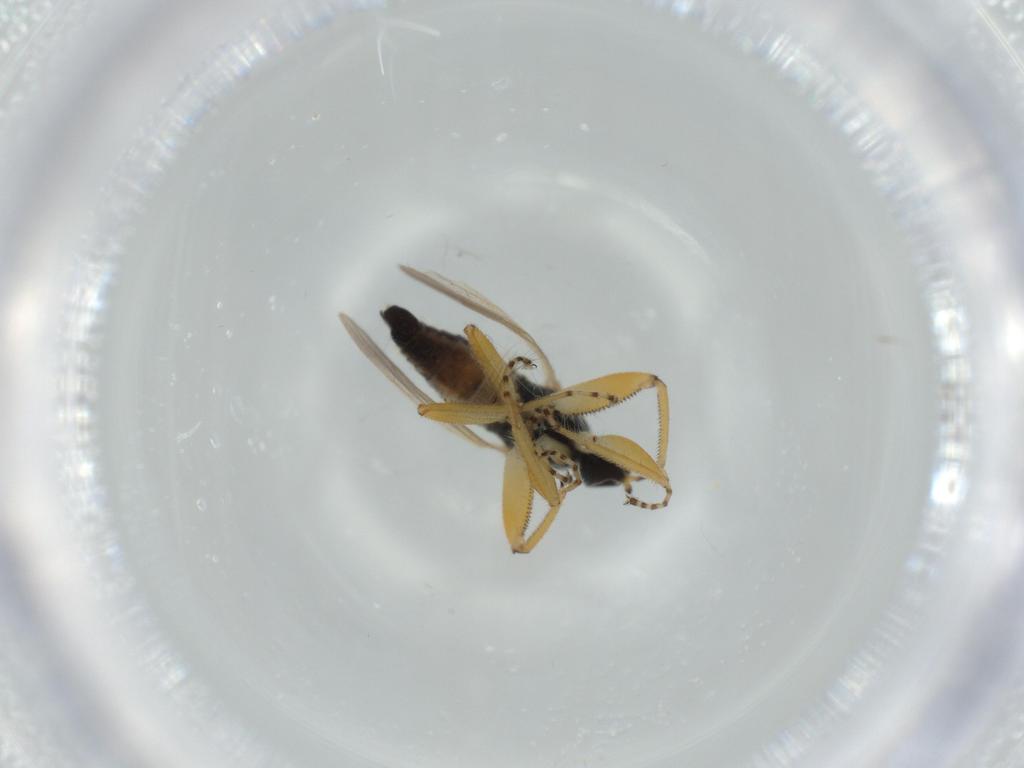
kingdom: Animalia
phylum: Arthropoda
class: Insecta
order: Diptera
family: Hybotidae
